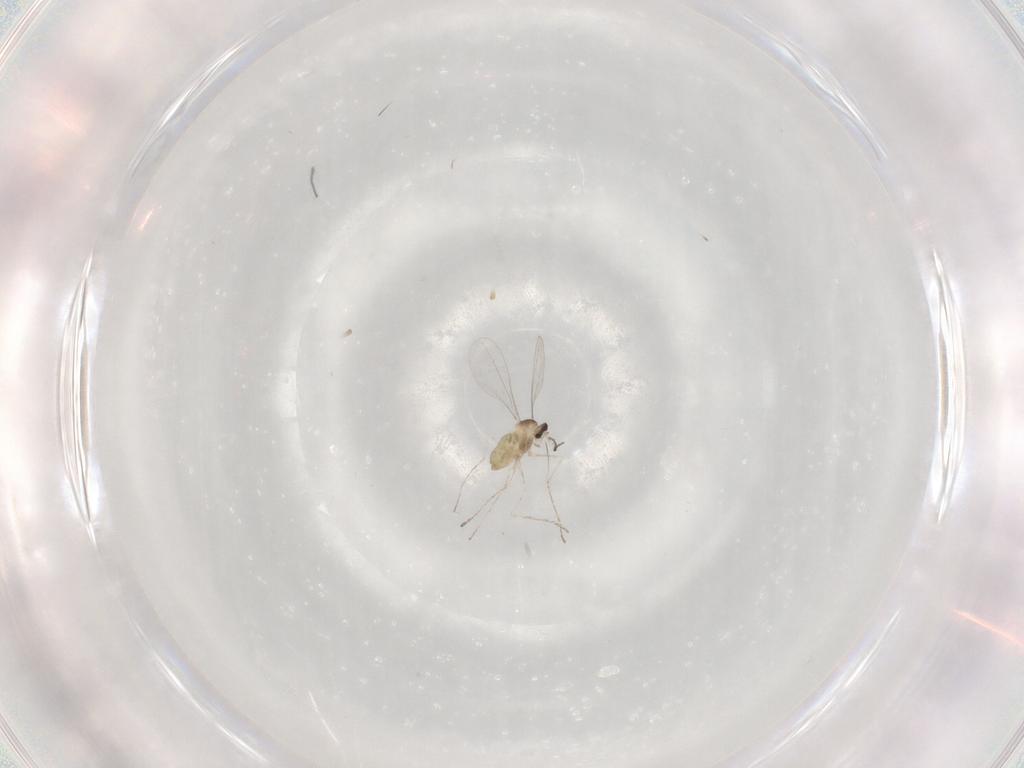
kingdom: Animalia
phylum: Arthropoda
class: Insecta
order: Diptera
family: Cecidomyiidae
